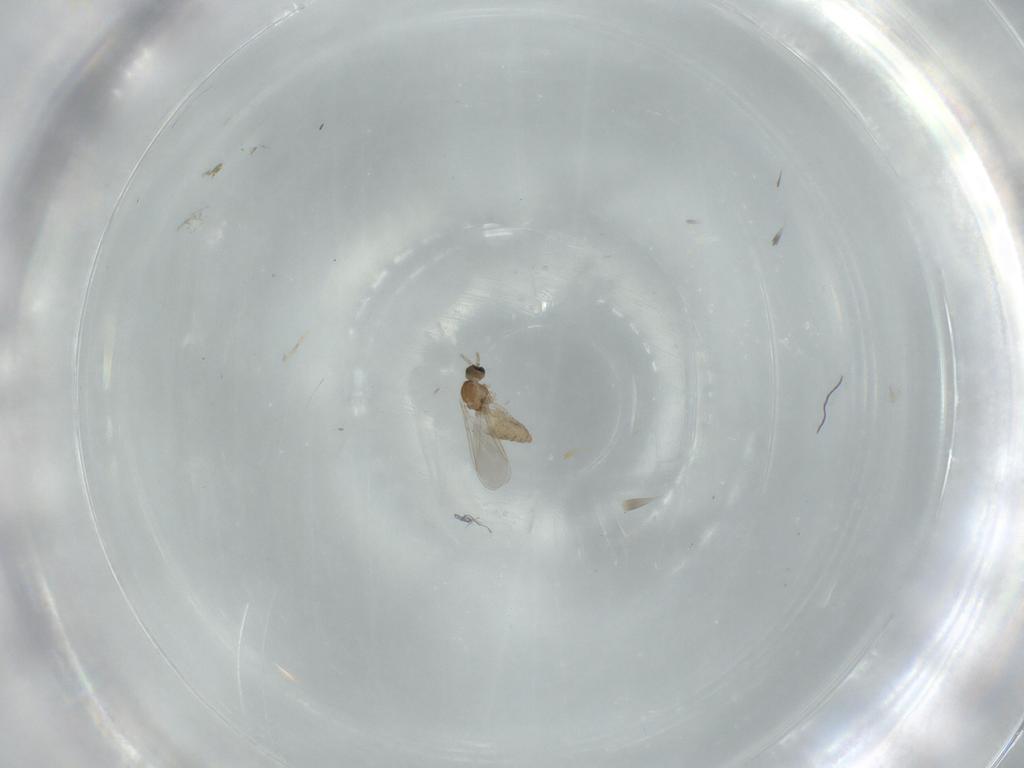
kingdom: Animalia
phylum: Arthropoda
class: Insecta
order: Diptera
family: Cecidomyiidae
